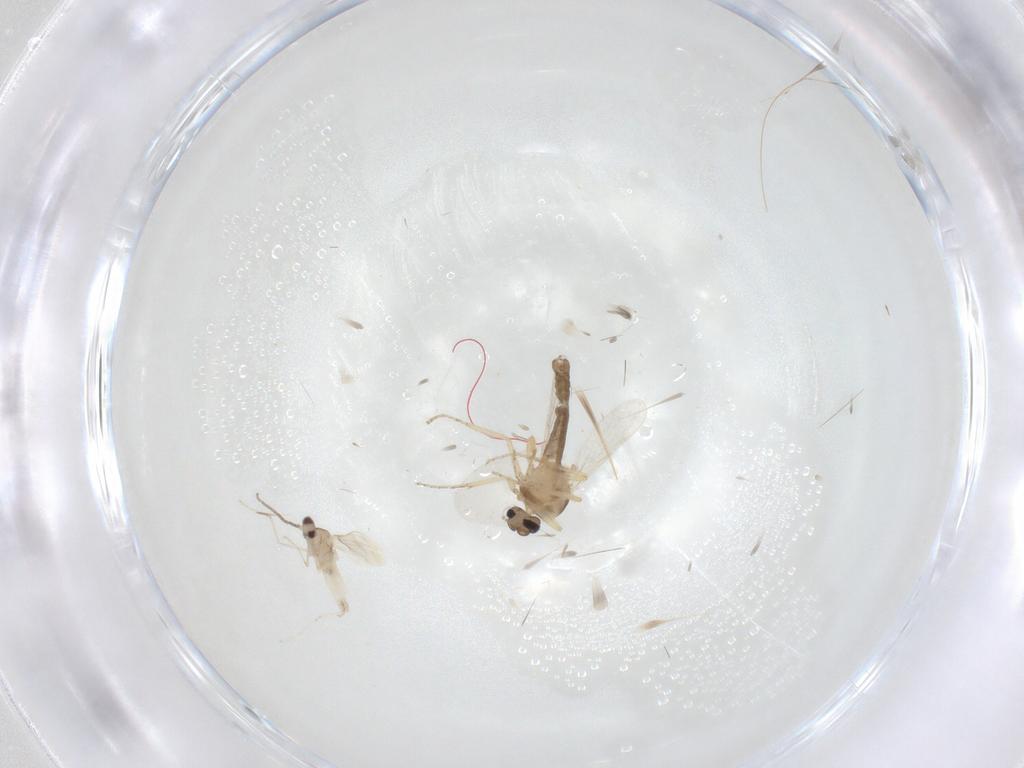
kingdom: Animalia
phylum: Arthropoda
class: Insecta
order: Diptera
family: Ceratopogonidae
